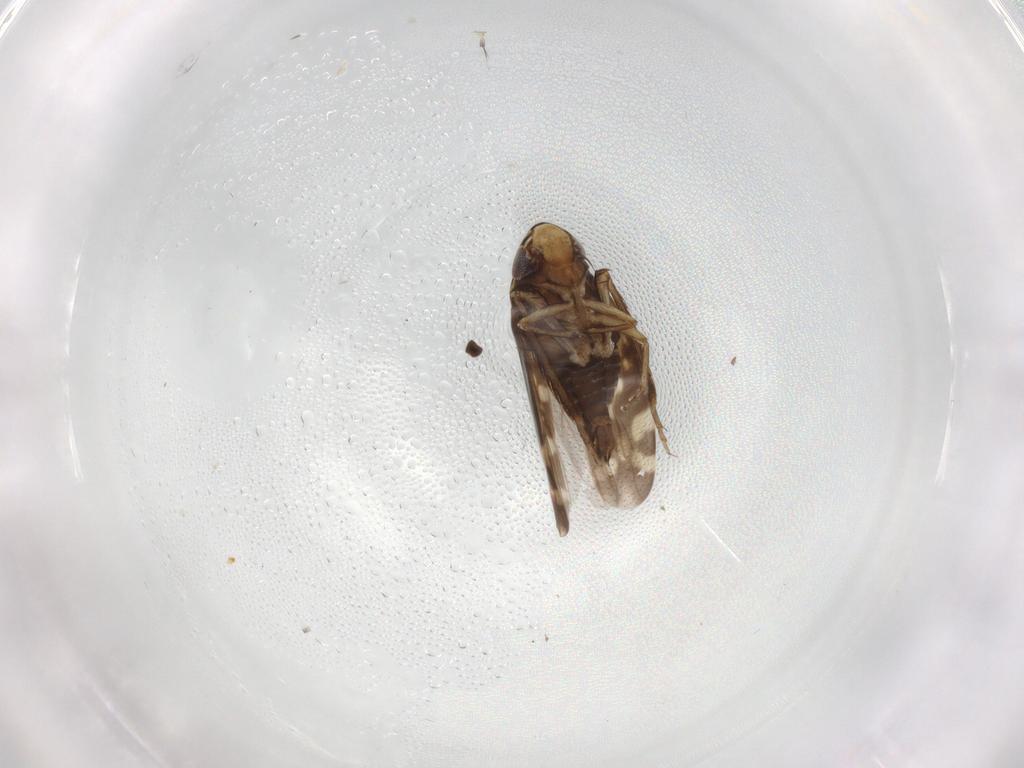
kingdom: Animalia
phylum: Arthropoda
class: Insecta
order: Hemiptera
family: Cicadellidae
